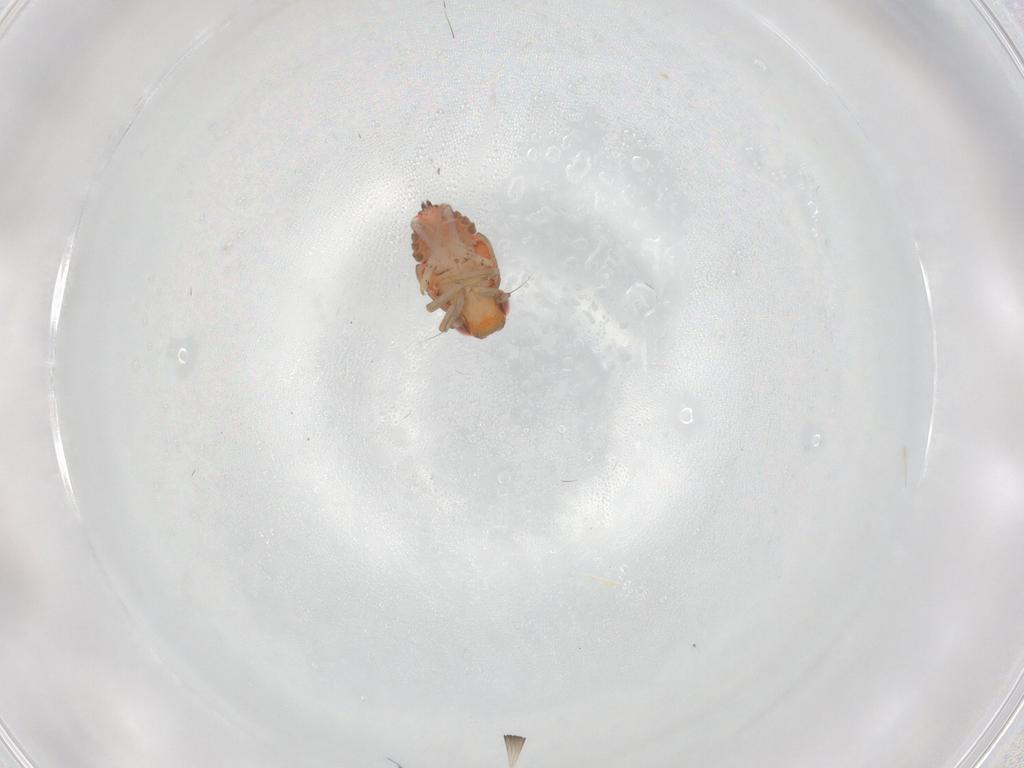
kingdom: Animalia
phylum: Arthropoda
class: Insecta
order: Hemiptera
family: Issidae
